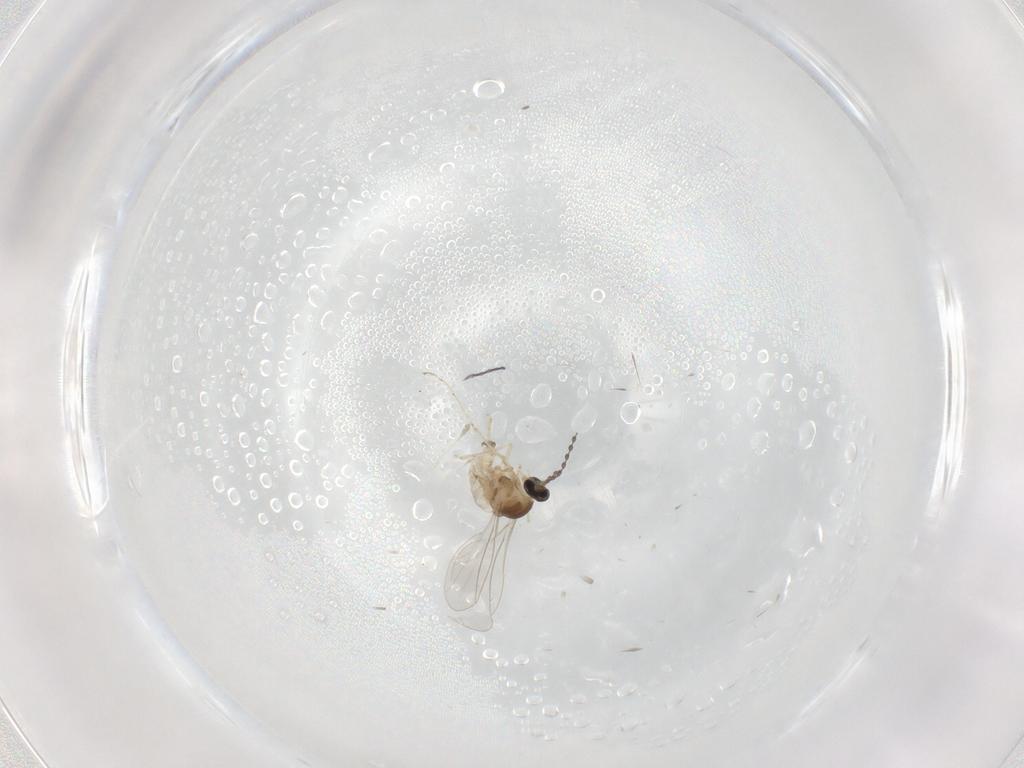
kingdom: Animalia
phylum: Arthropoda
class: Insecta
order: Diptera
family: Cecidomyiidae
